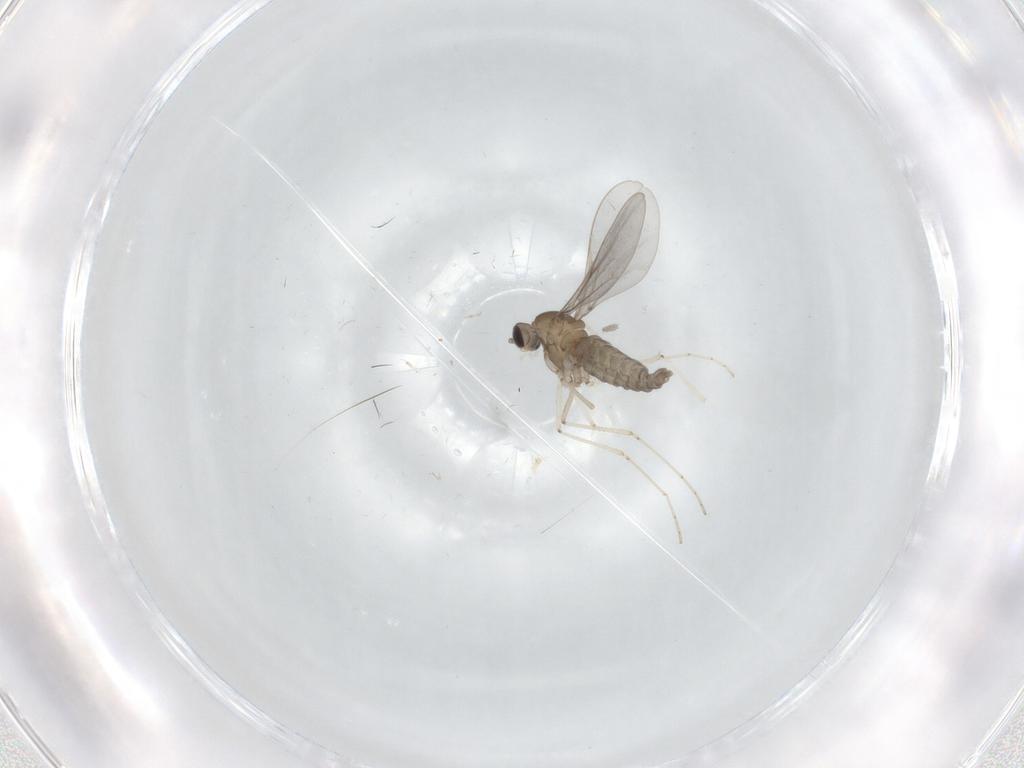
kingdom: Animalia
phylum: Arthropoda
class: Insecta
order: Diptera
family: Cecidomyiidae
